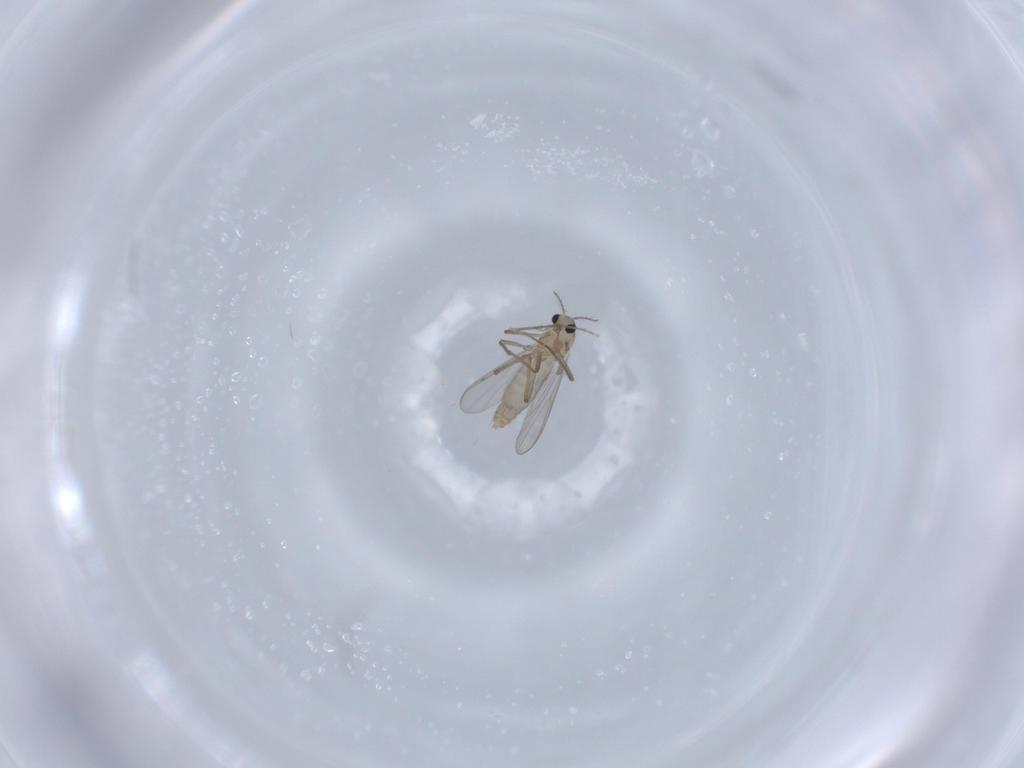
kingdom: Animalia
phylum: Arthropoda
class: Insecta
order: Diptera
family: Chloropidae
